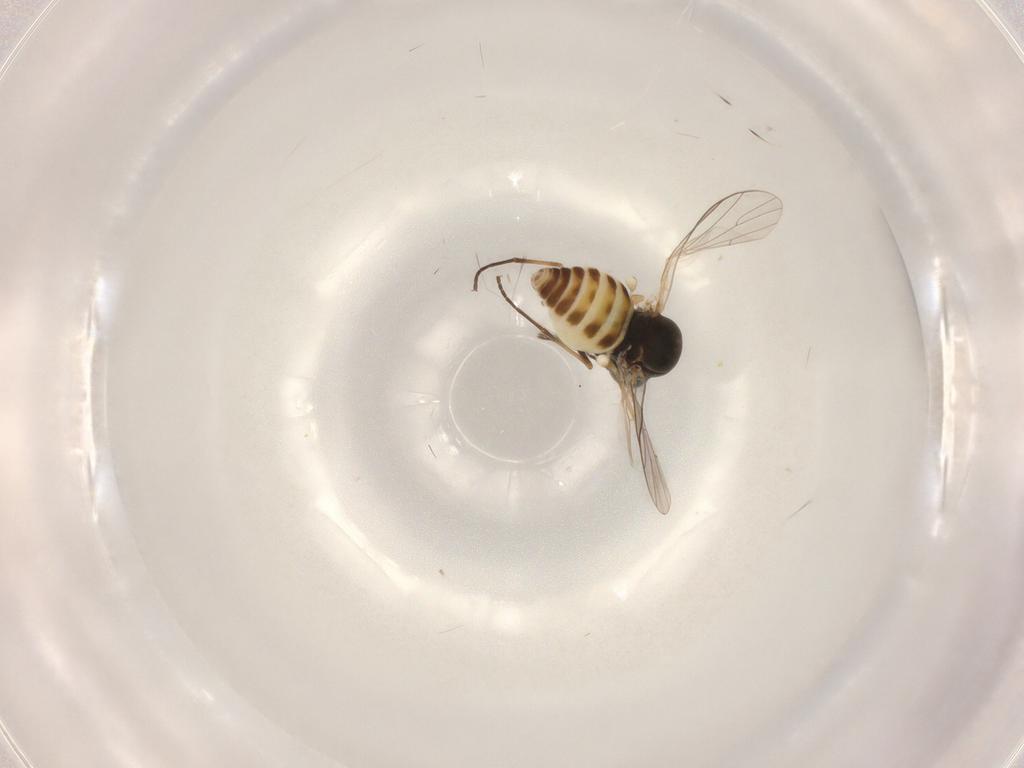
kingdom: Animalia
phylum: Arthropoda
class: Insecta
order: Diptera
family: Bombyliidae
